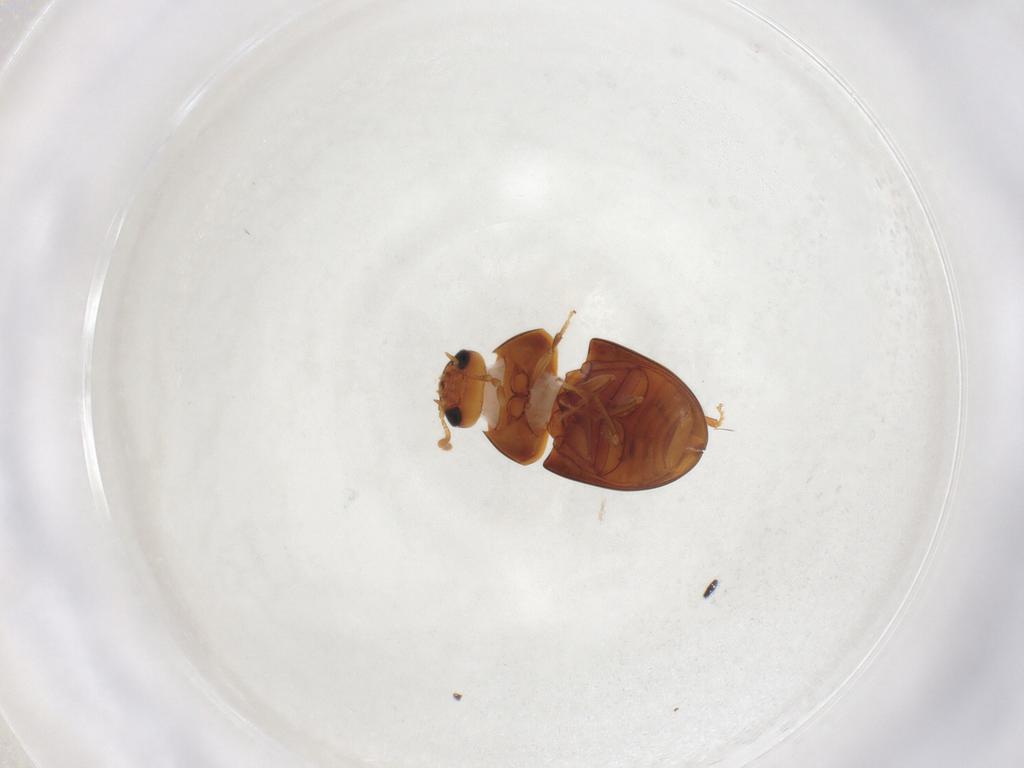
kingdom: Animalia
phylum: Arthropoda
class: Insecta
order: Coleoptera
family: Phalacridae
